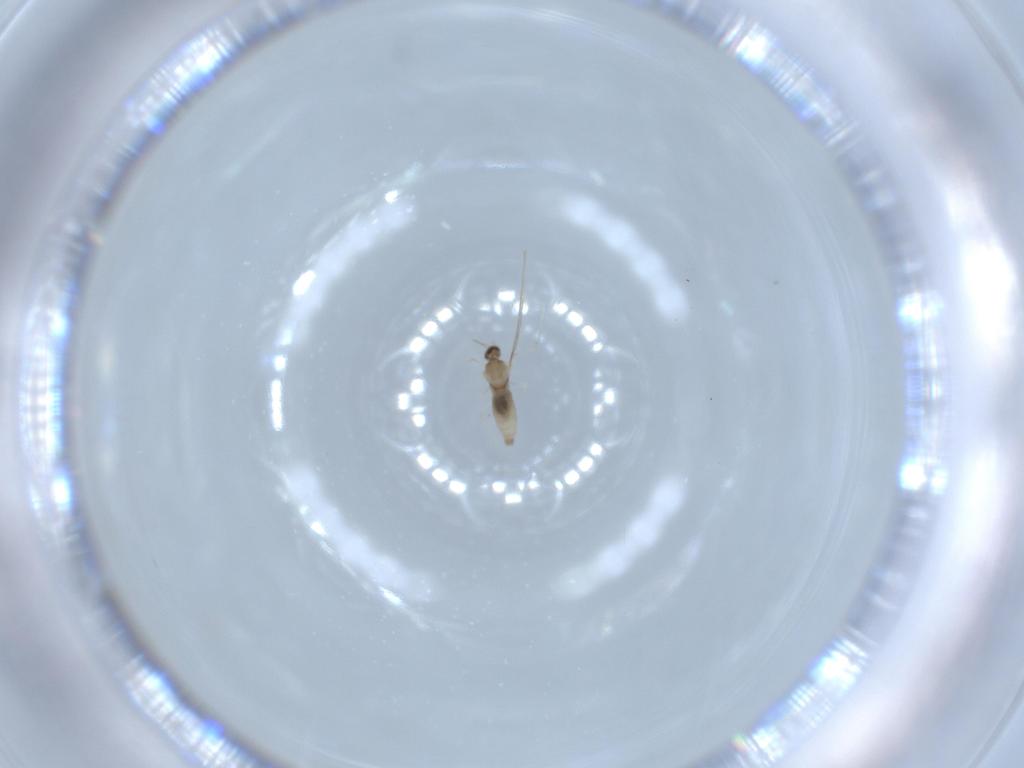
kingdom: Animalia
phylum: Arthropoda
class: Insecta
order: Diptera
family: Cecidomyiidae
